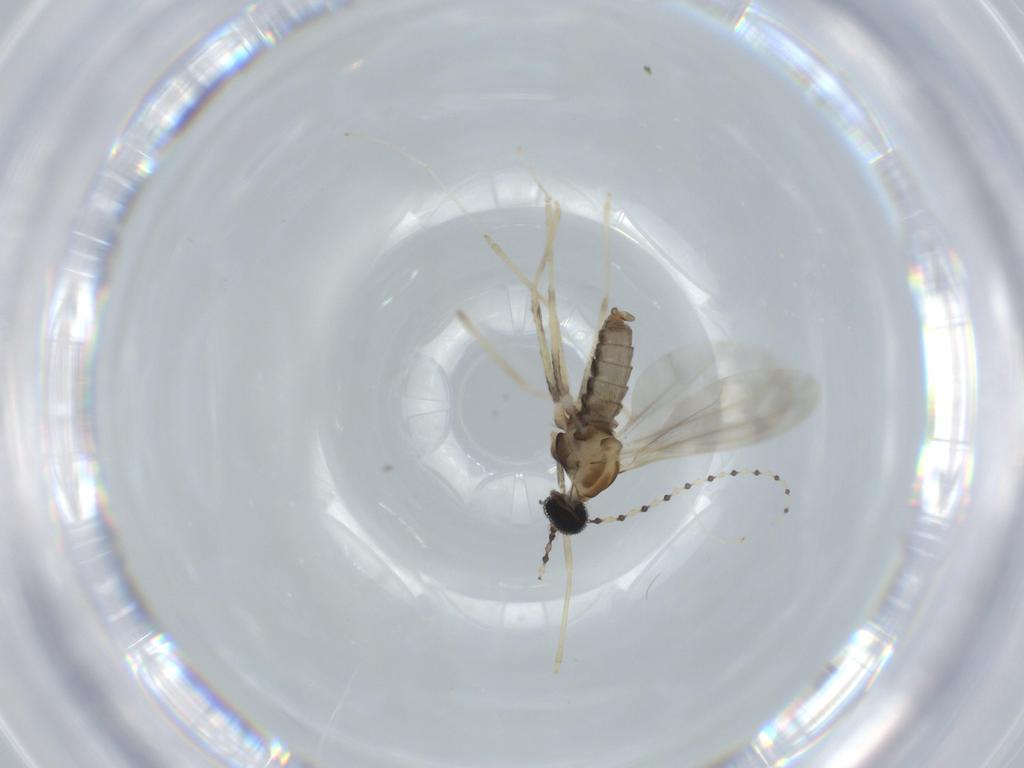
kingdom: Animalia
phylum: Arthropoda
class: Insecta
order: Diptera
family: Cecidomyiidae
